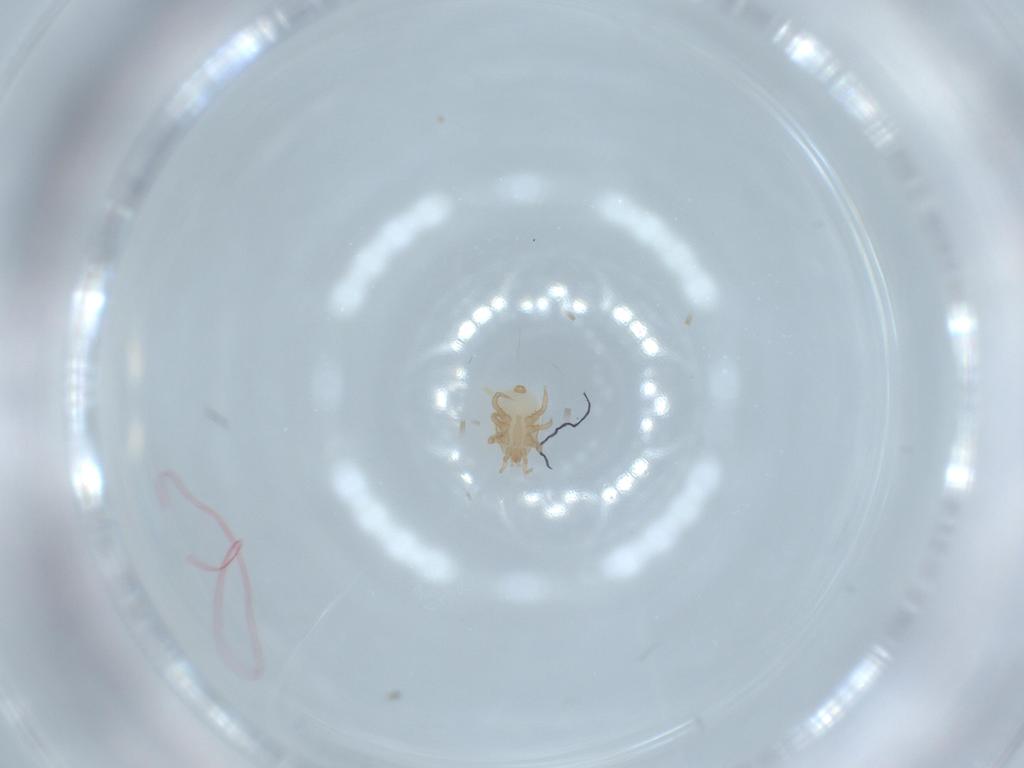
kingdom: Animalia
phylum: Arthropoda
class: Arachnida
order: Mesostigmata
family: Halolaelapidae
